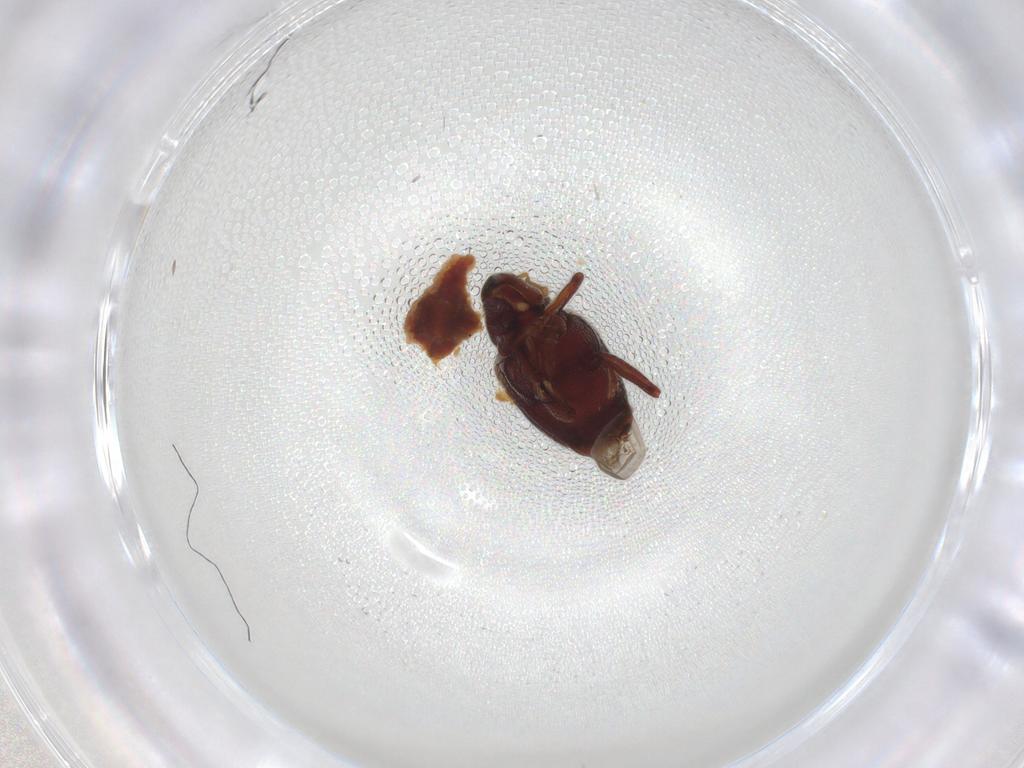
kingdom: Animalia
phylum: Arthropoda
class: Insecta
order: Coleoptera
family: Curculionidae
